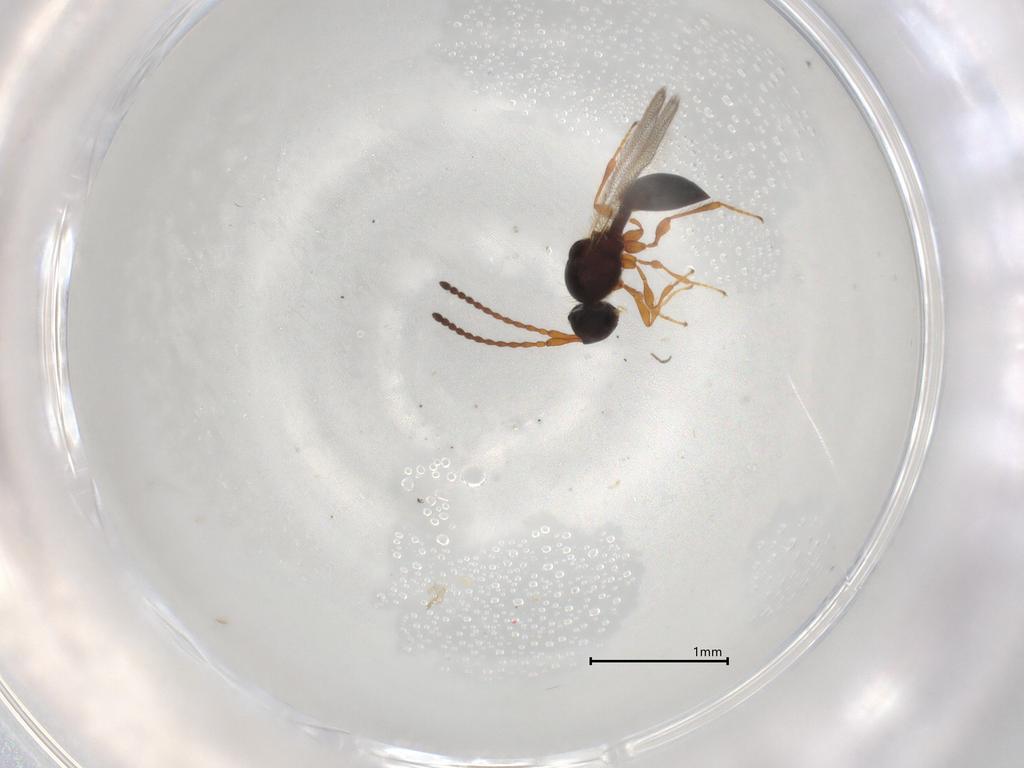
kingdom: Animalia
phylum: Arthropoda
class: Insecta
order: Hymenoptera
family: Diapriidae
